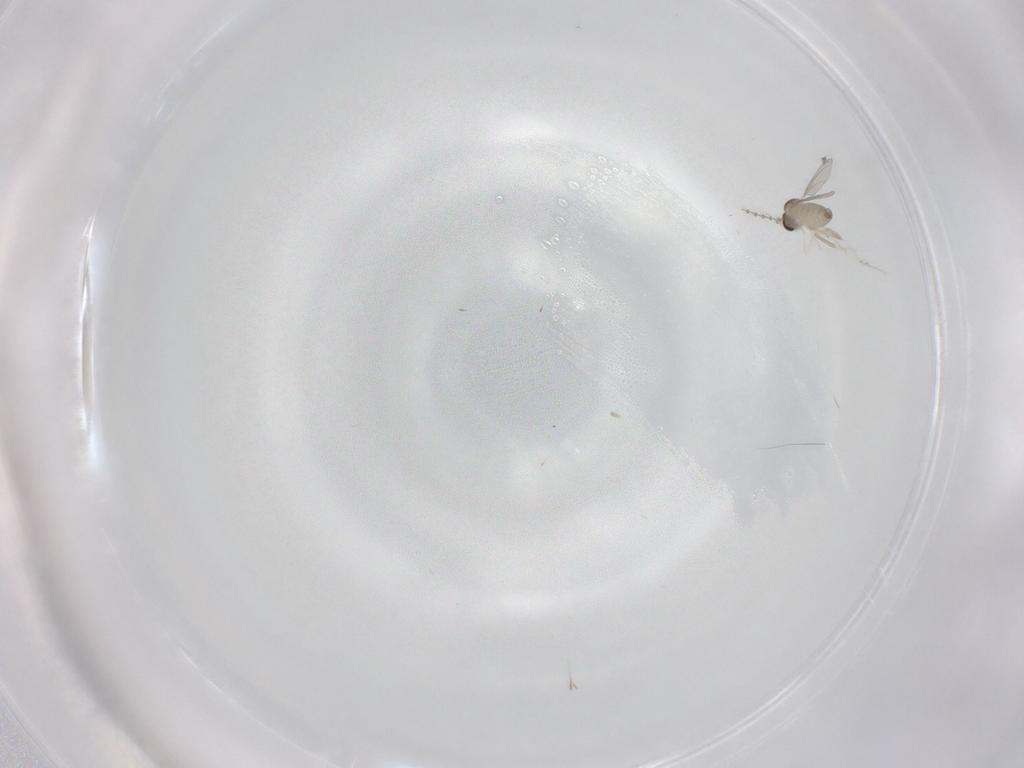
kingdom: Animalia
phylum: Arthropoda
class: Insecta
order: Diptera
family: Cecidomyiidae
